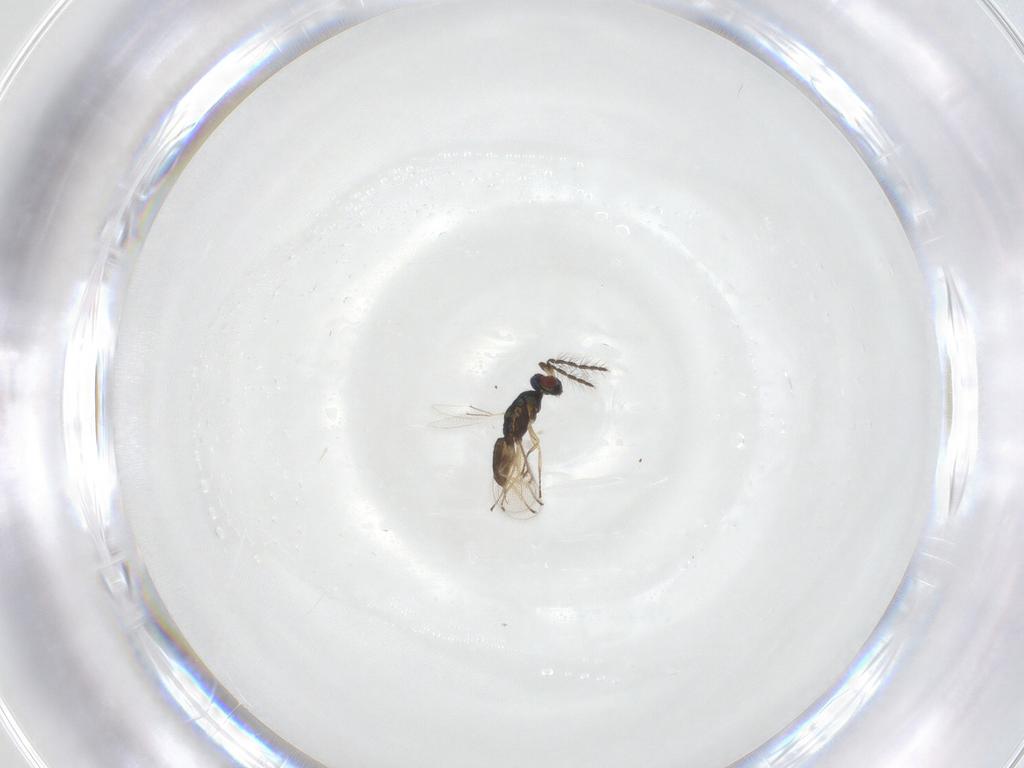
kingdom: Animalia
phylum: Arthropoda
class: Insecta
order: Hymenoptera
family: Eulophidae
